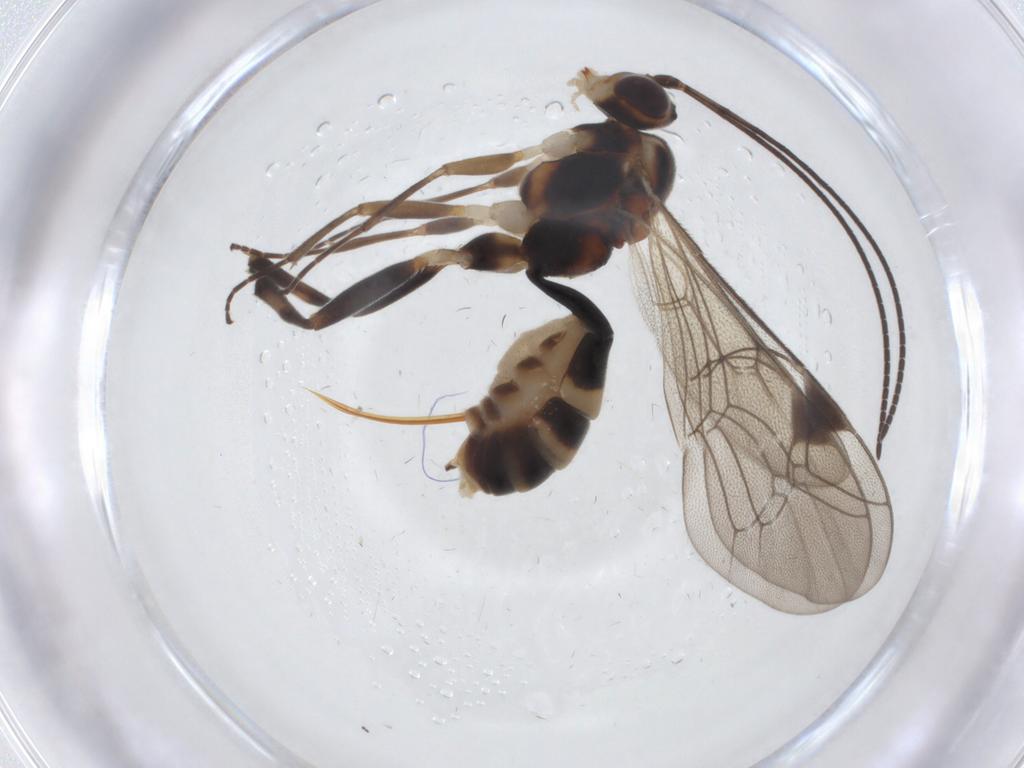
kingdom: Animalia
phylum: Arthropoda
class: Insecta
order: Hymenoptera
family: Ichneumonidae
